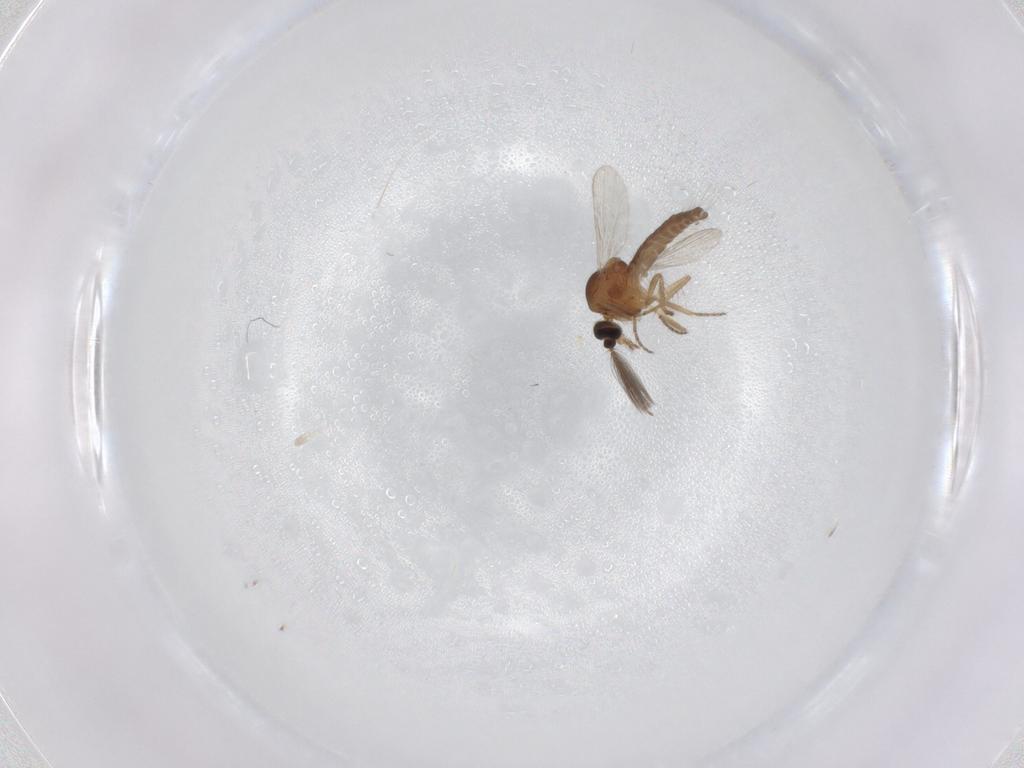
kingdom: Animalia
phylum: Arthropoda
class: Insecta
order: Diptera
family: Ceratopogonidae
